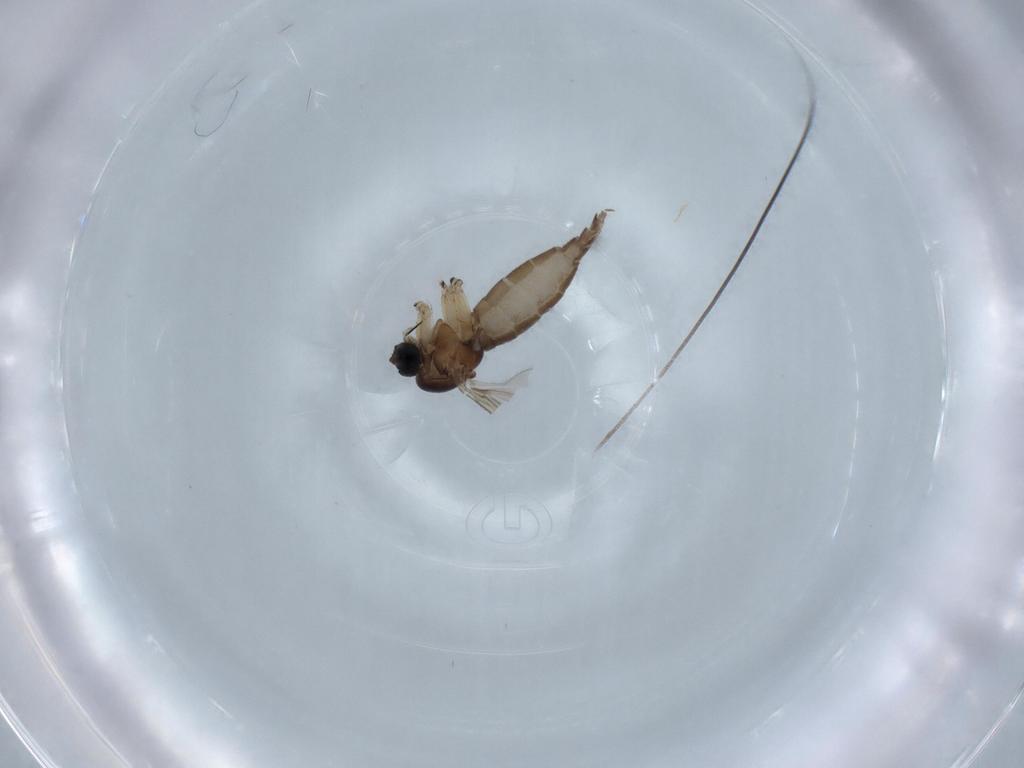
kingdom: Animalia
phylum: Arthropoda
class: Insecta
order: Diptera
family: Sciaridae
